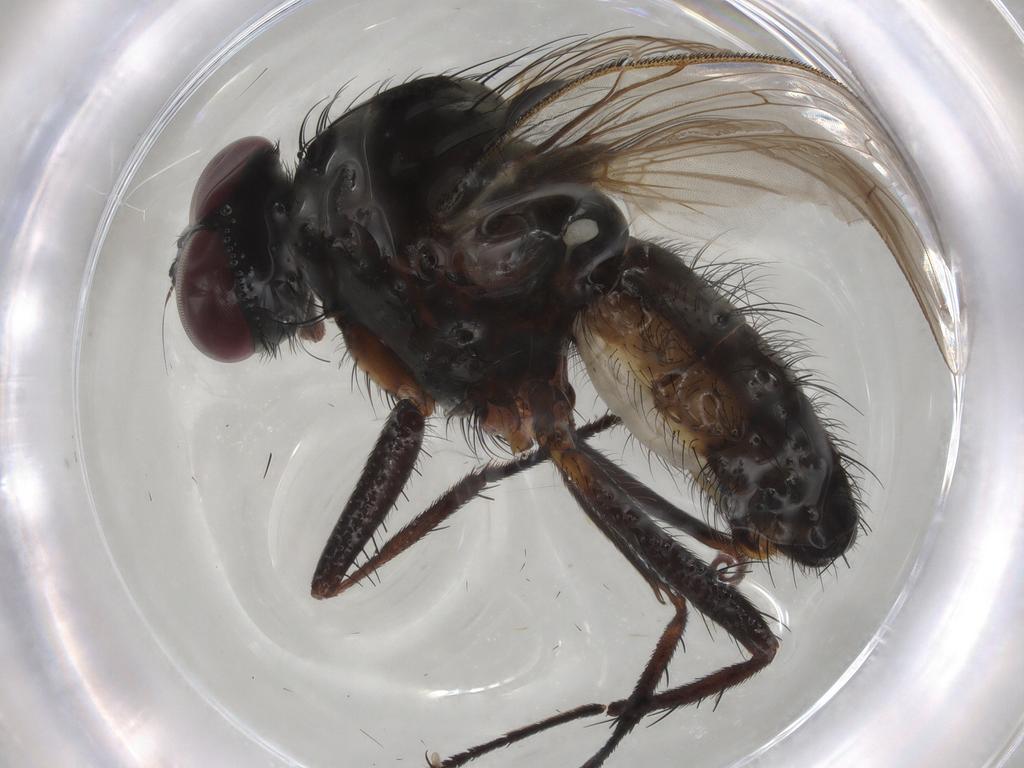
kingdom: Animalia
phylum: Arthropoda
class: Insecta
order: Diptera
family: Anthomyiidae
